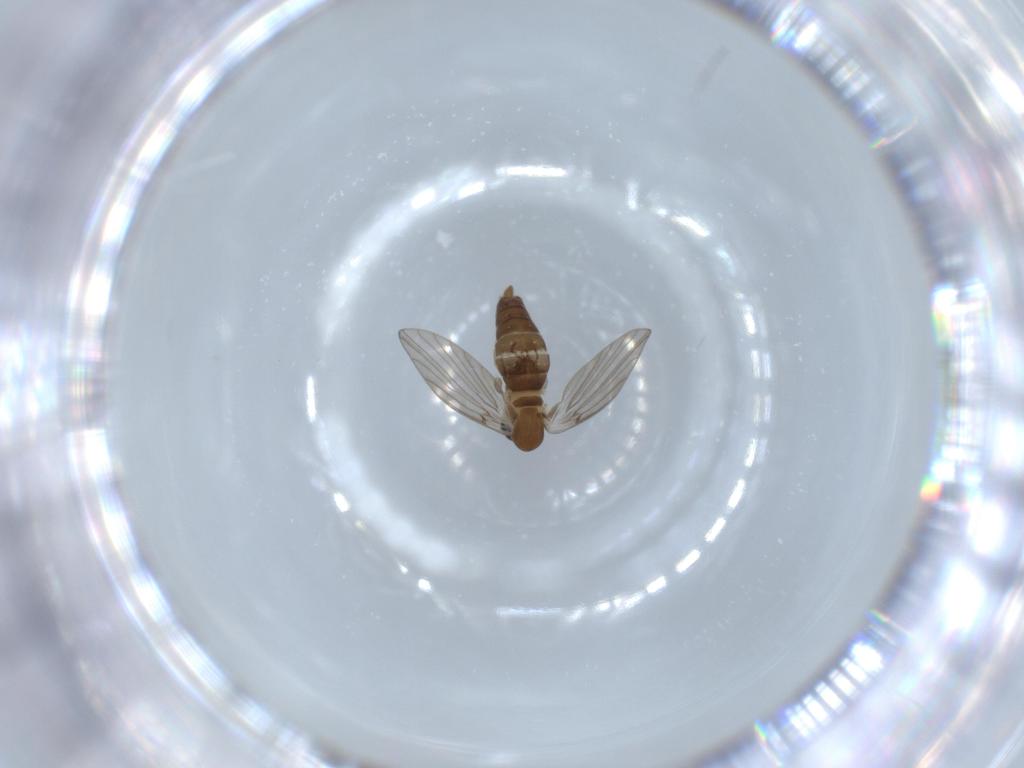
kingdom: Animalia
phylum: Arthropoda
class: Insecta
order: Diptera
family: Psychodidae
